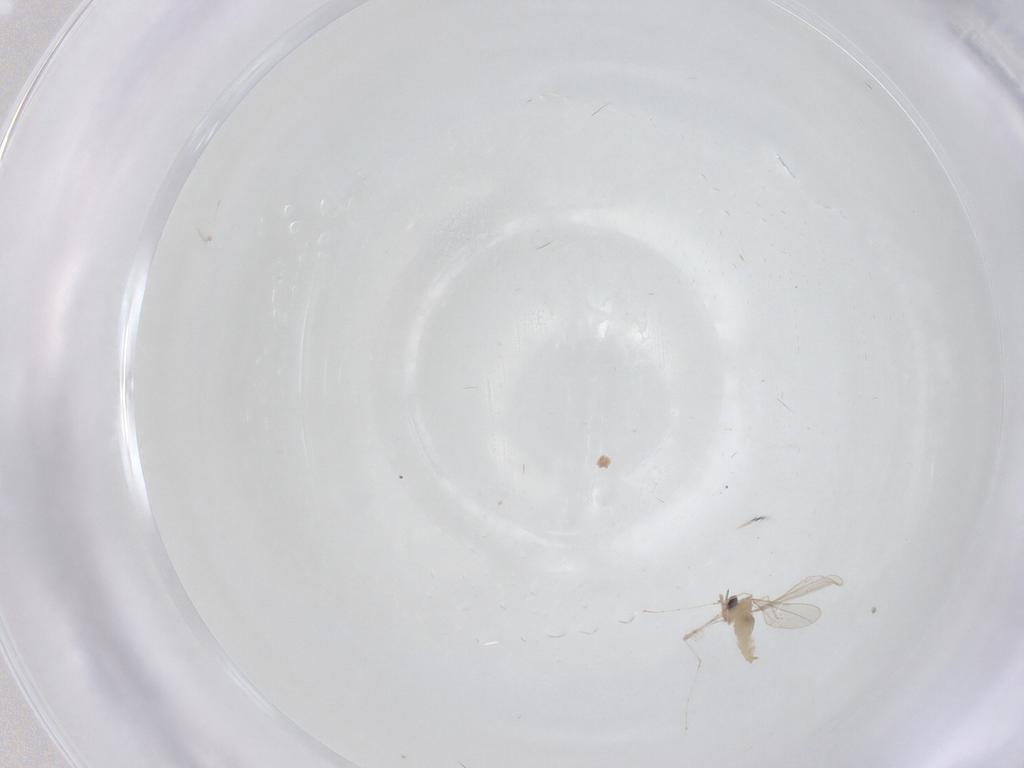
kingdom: Animalia
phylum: Arthropoda
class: Insecta
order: Diptera
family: Cecidomyiidae
